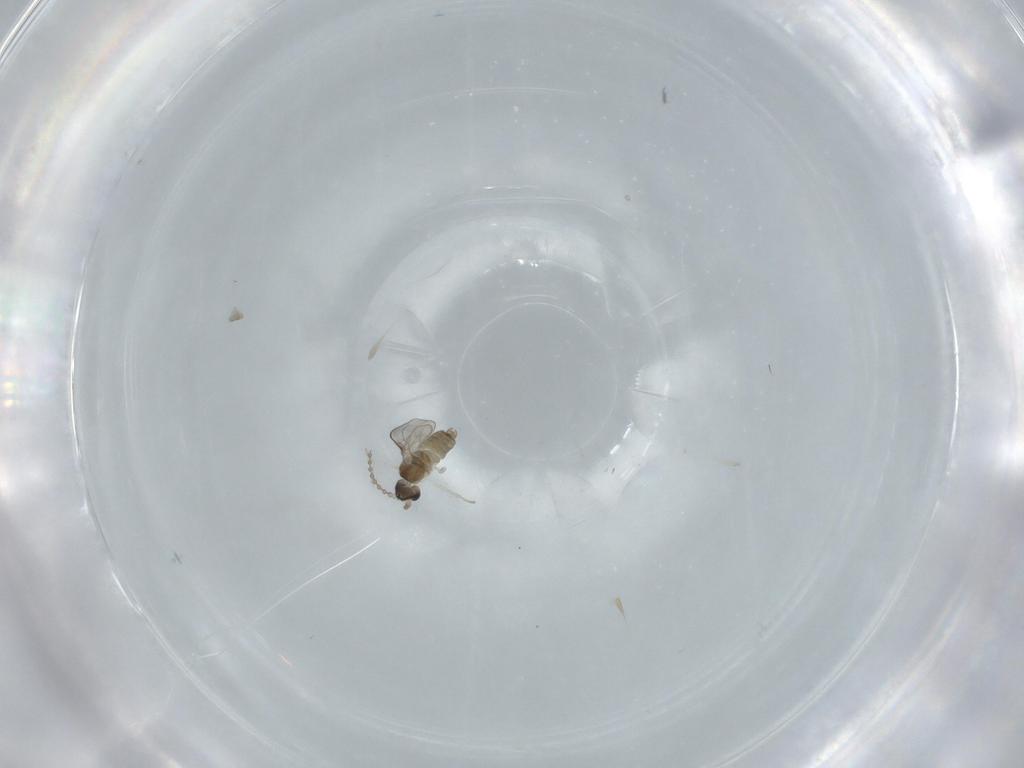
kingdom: Animalia
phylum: Arthropoda
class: Insecta
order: Diptera
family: Cecidomyiidae
